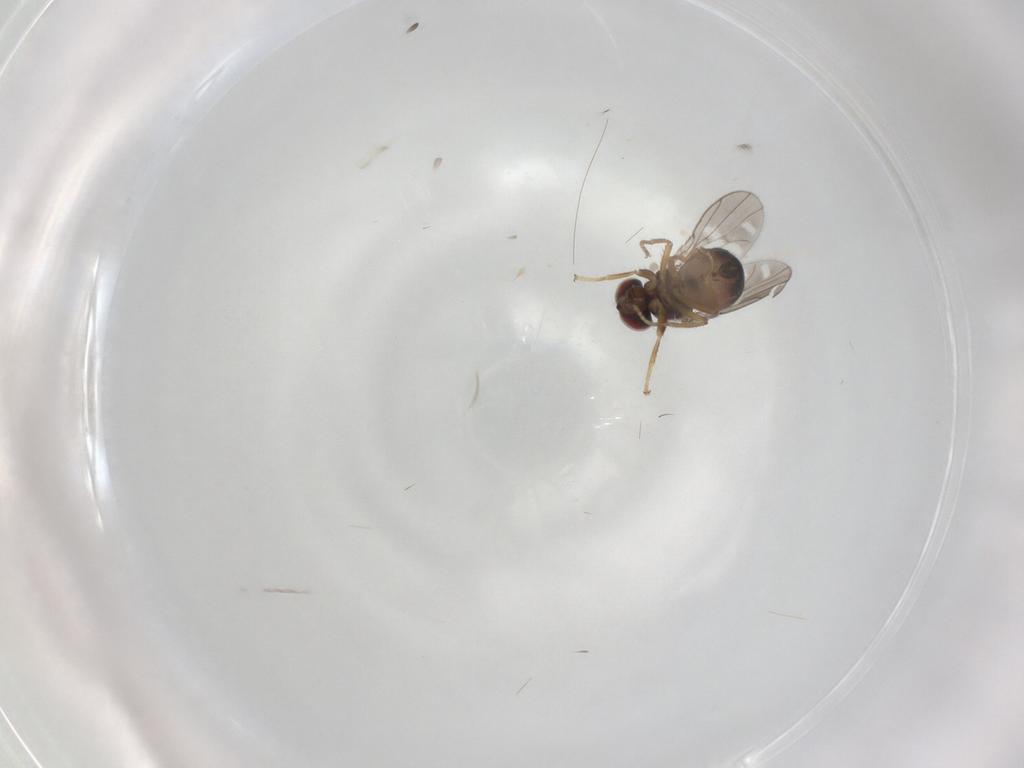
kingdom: Animalia
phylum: Arthropoda
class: Insecta
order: Diptera
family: Ephydridae
